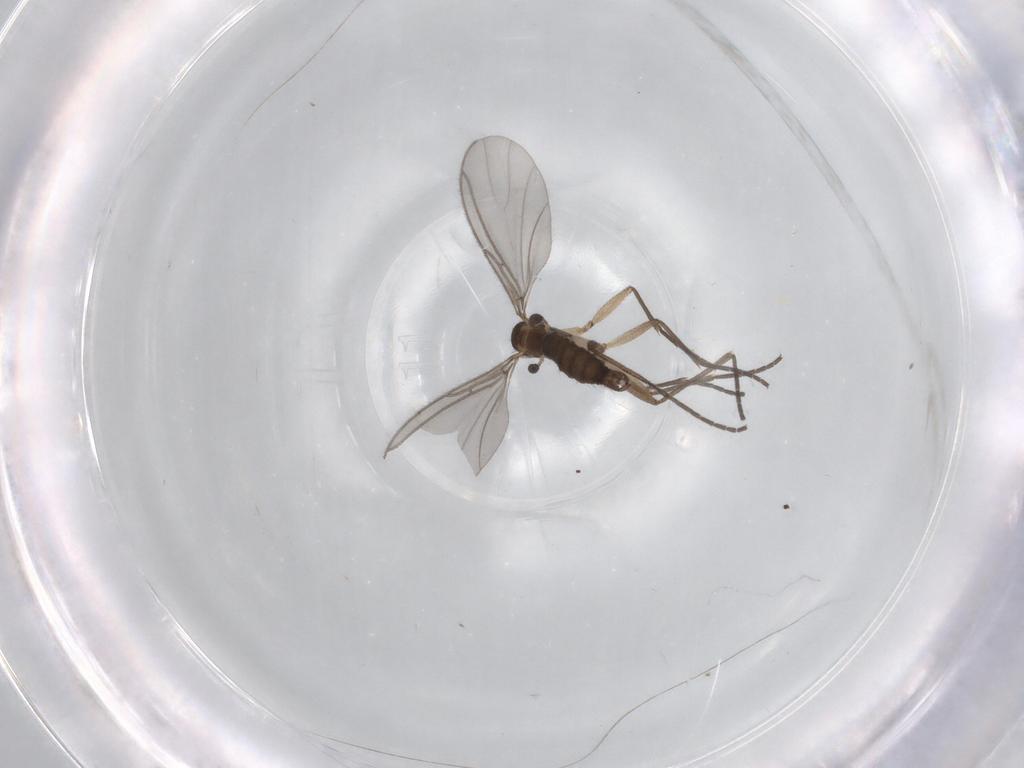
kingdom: Animalia
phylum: Arthropoda
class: Insecta
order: Diptera
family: Sciaridae
